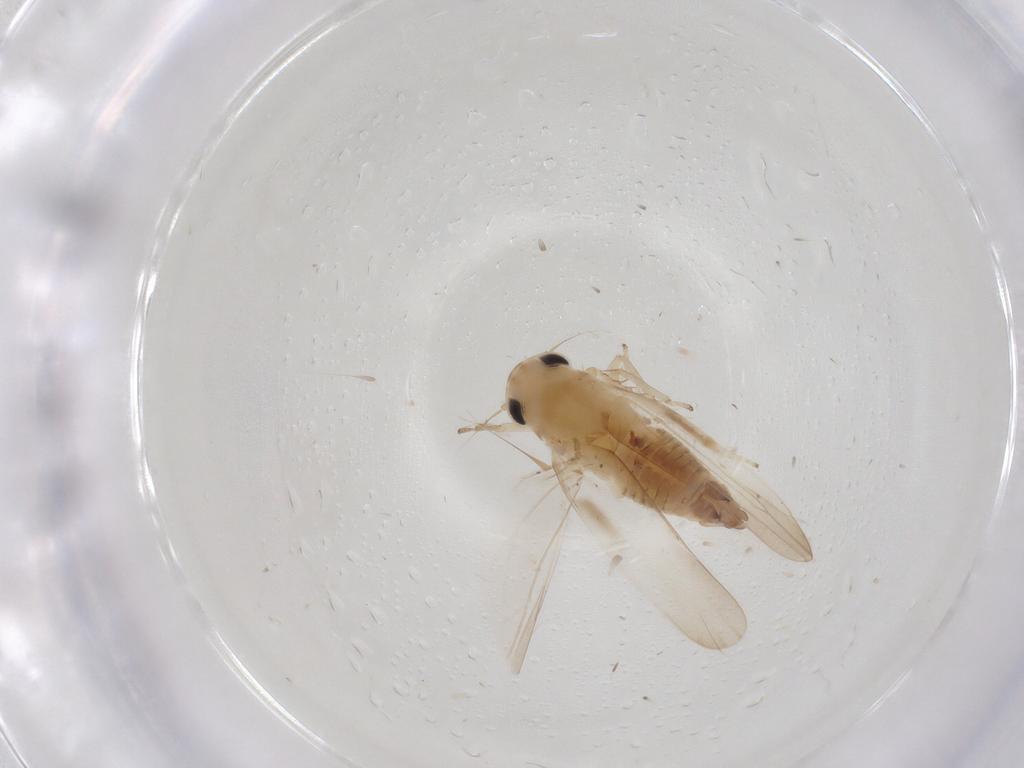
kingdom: Animalia
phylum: Arthropoda
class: Insecta
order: Hemiptera
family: Cicadellidae
